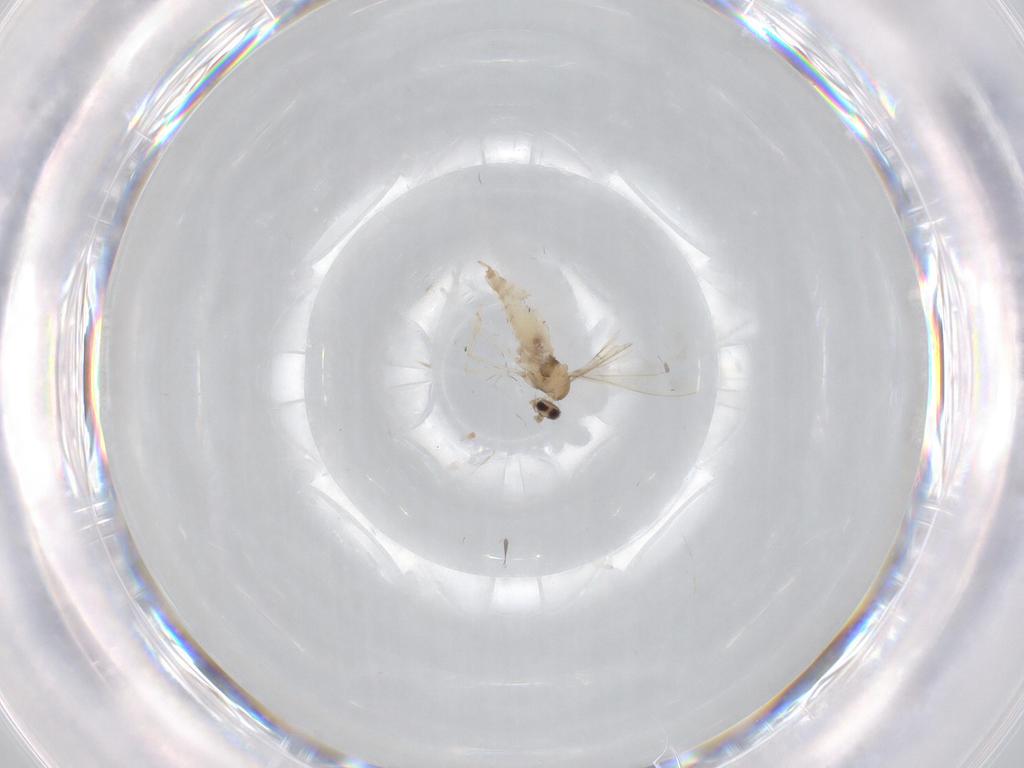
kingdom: Animalia
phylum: Arthropoda
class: Insecta
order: Diptera
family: Cecidomyiidae
